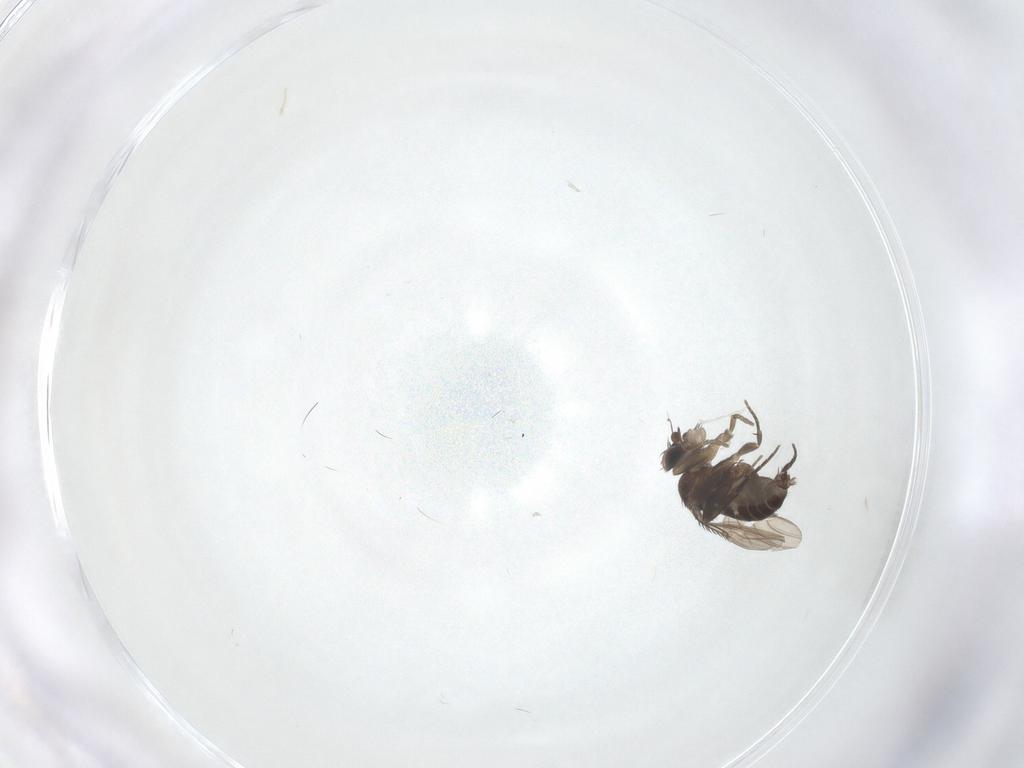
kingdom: Animalia
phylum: Arthropoda
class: Insecta
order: Diptera
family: Phoridae
